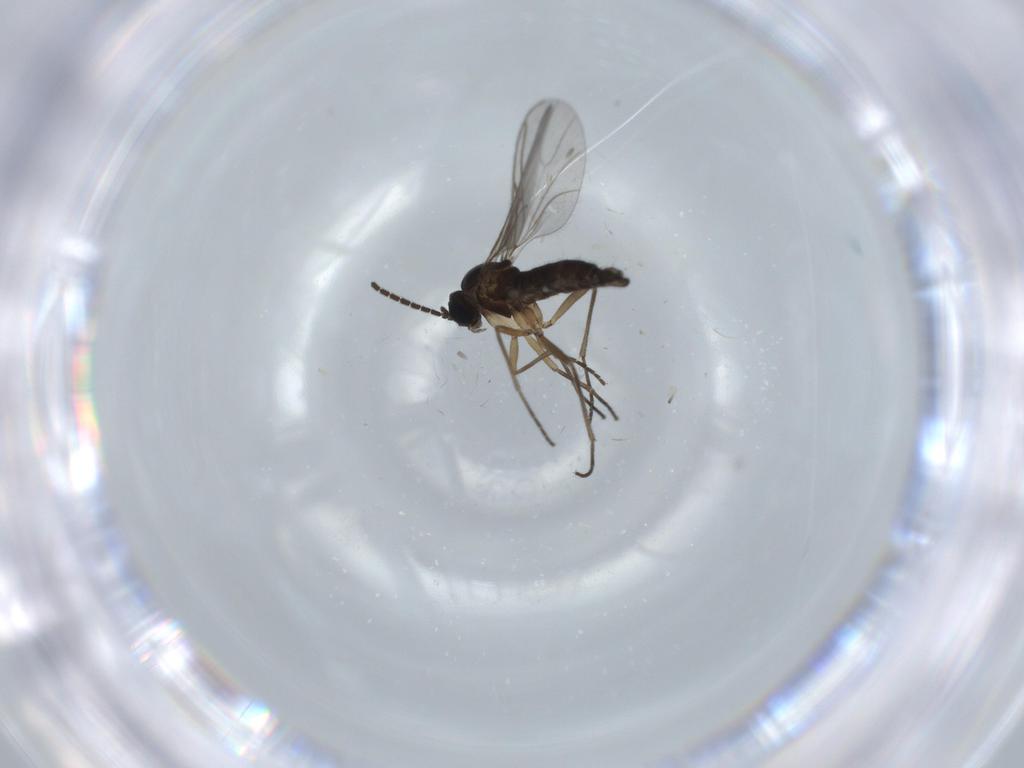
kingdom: Animalia
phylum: Arthropoda
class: Insecta
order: Diptera
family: Sciaridae
